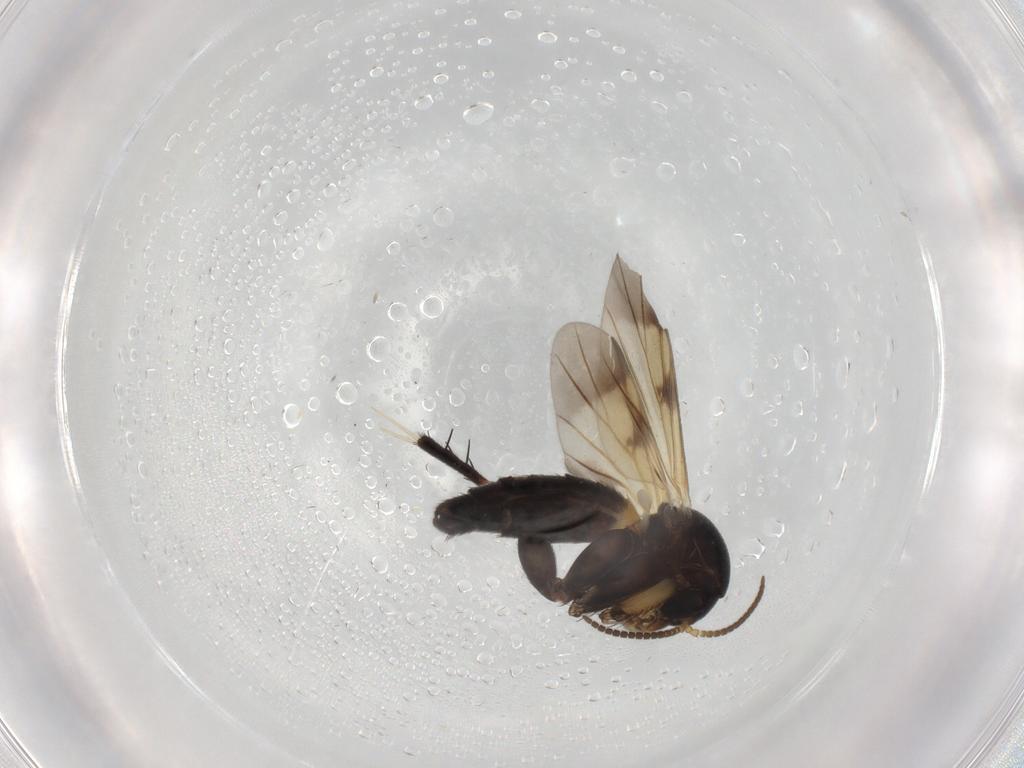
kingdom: Animalia
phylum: Arthropoda
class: Insecta
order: Diptera
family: Mycetophilidae
